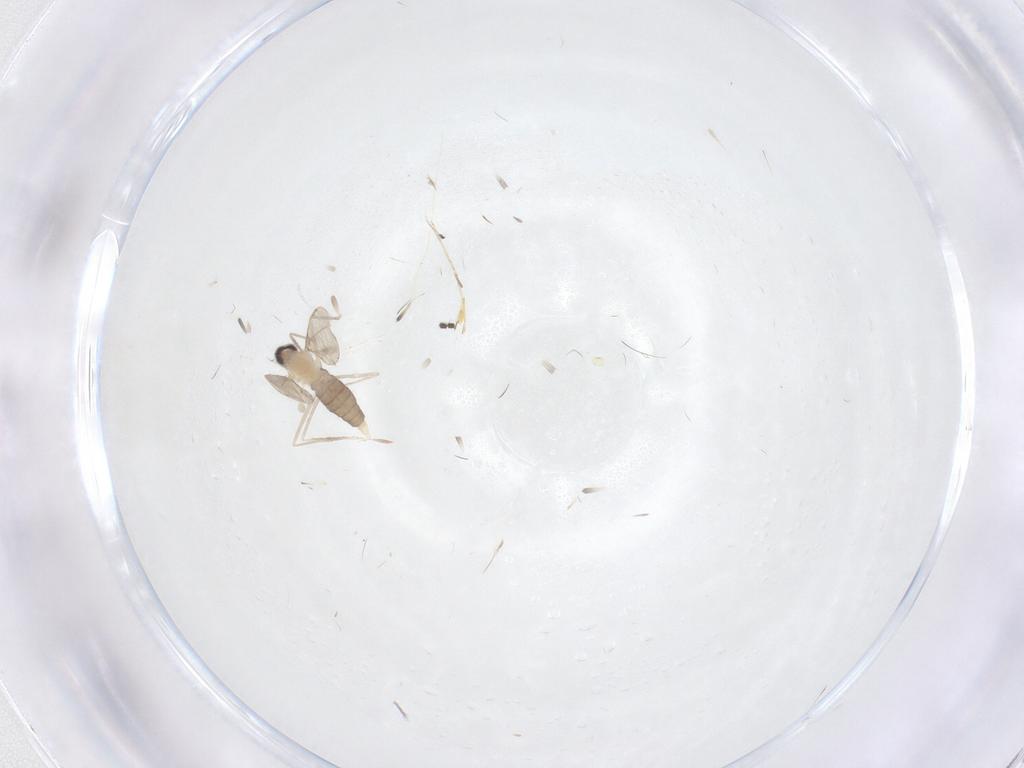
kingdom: Animalia
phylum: Arthropoda
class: Insecta
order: Diptera
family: Sciaridae
